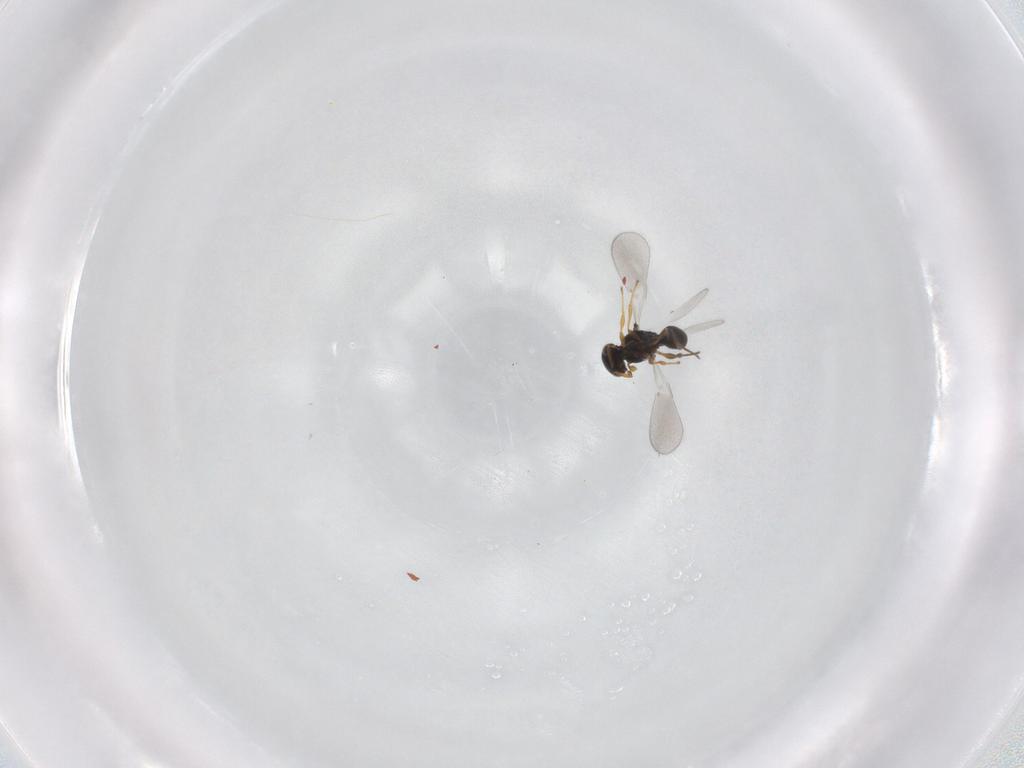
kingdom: Animalia
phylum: Arthropoda
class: Insecta
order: Hymenoptera
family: Platygastridae
